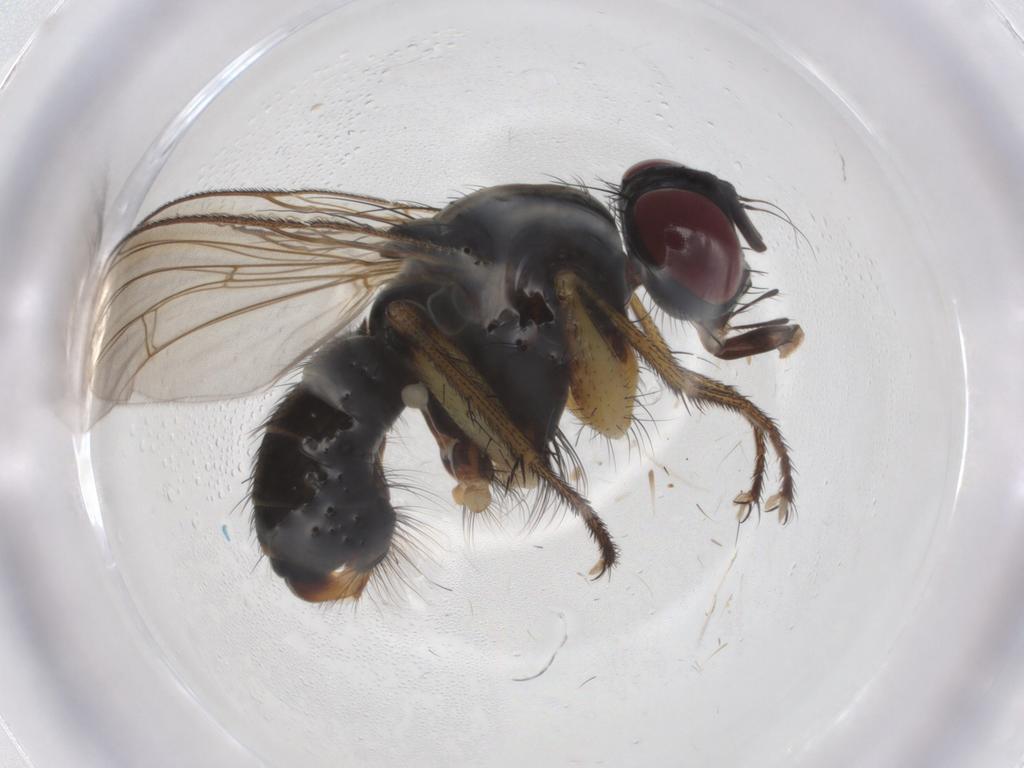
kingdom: Animalia
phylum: Arthropoda
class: Insecta
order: Diptera
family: Muscidae
